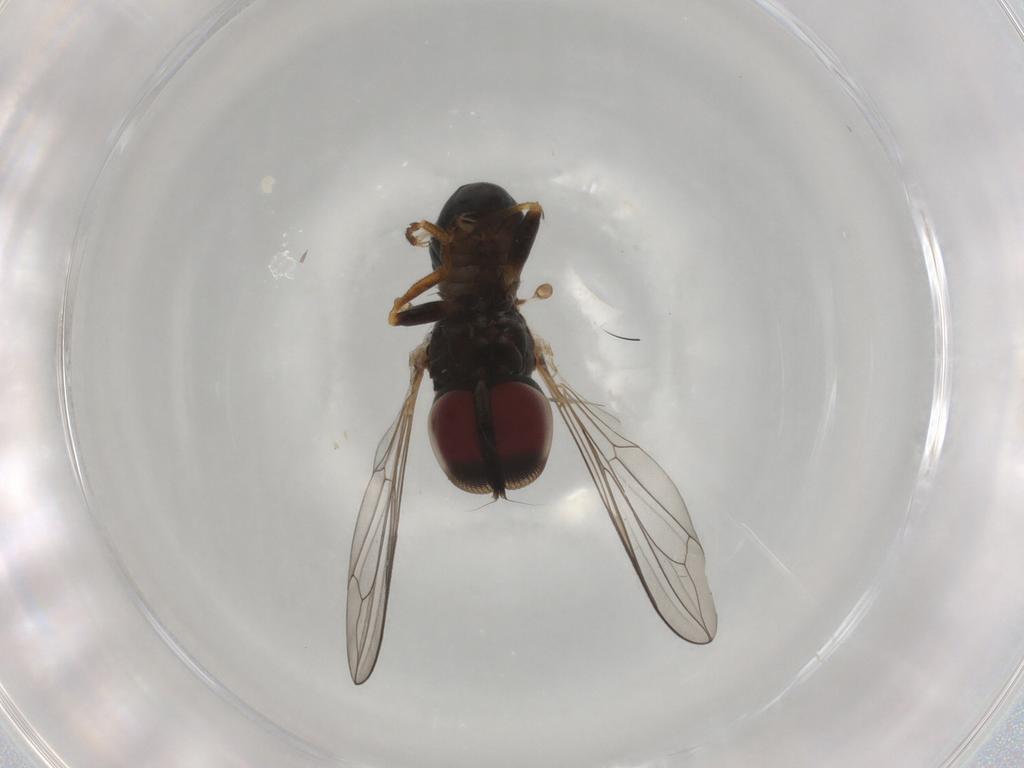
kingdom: Animalia
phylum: Arthropoda
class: Insecta
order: Diptera
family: Pipunculidae
